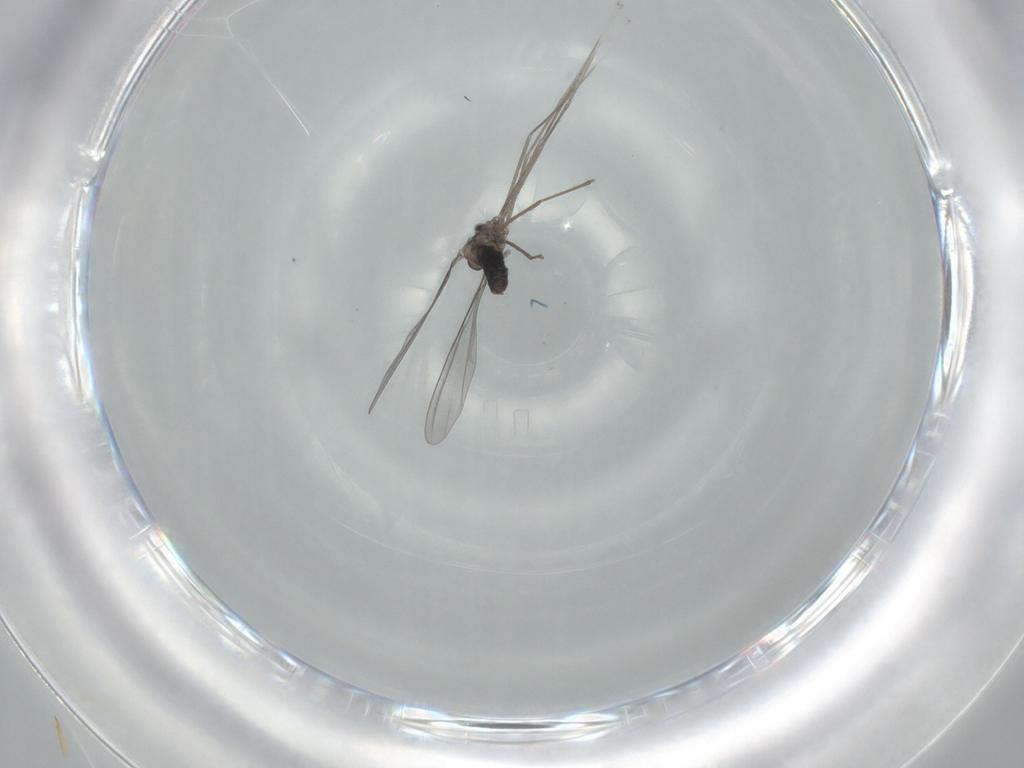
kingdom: Animalia
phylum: Arthropoda
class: Insecta
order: Diptera
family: Cecidomyiidae
